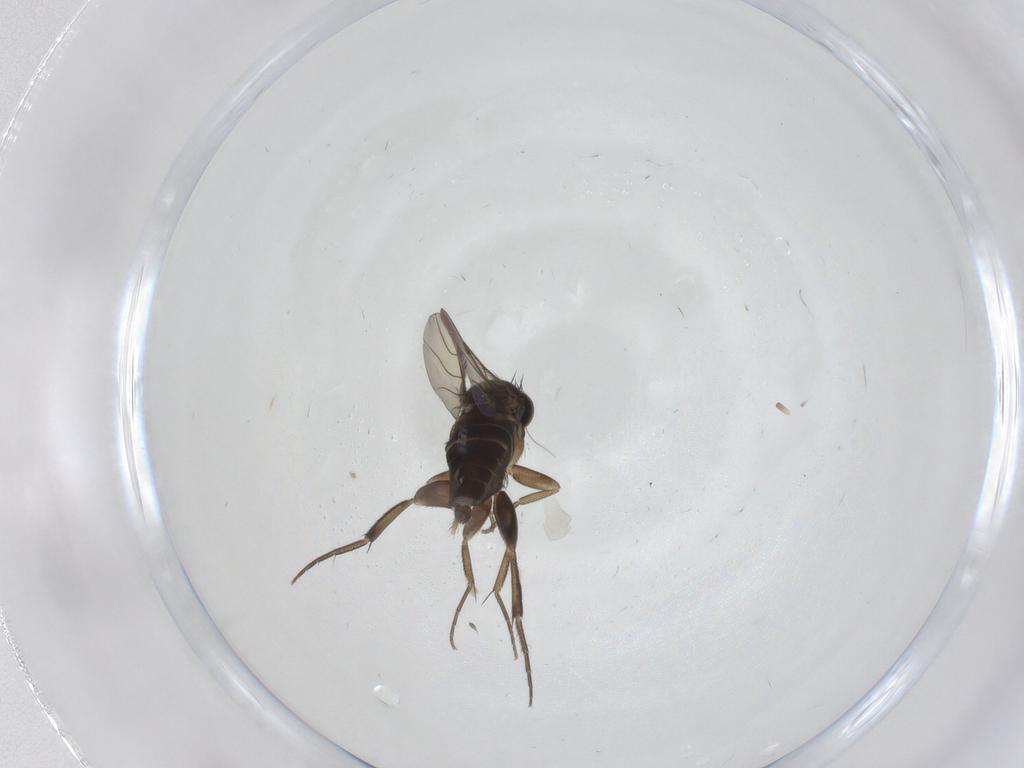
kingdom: Animalia
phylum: Arthropoda
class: Insecta
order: Diptera
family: Phoridae
